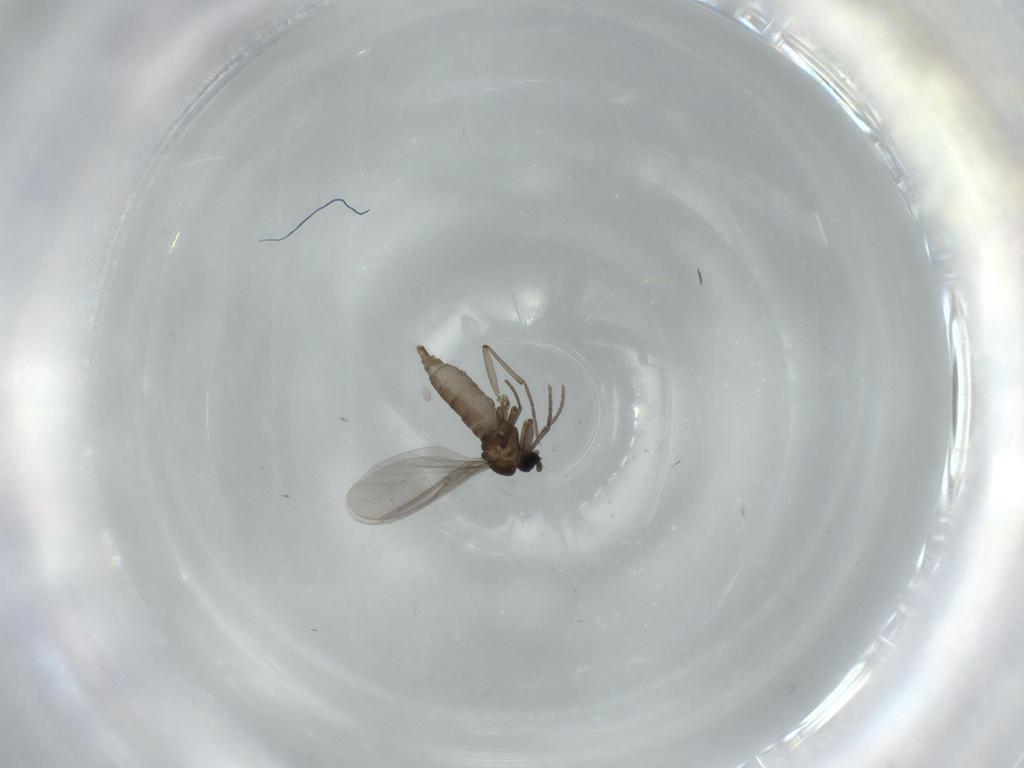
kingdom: Animalia
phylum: Arthropoda
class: Insecta
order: Diptera
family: Sciaridae
